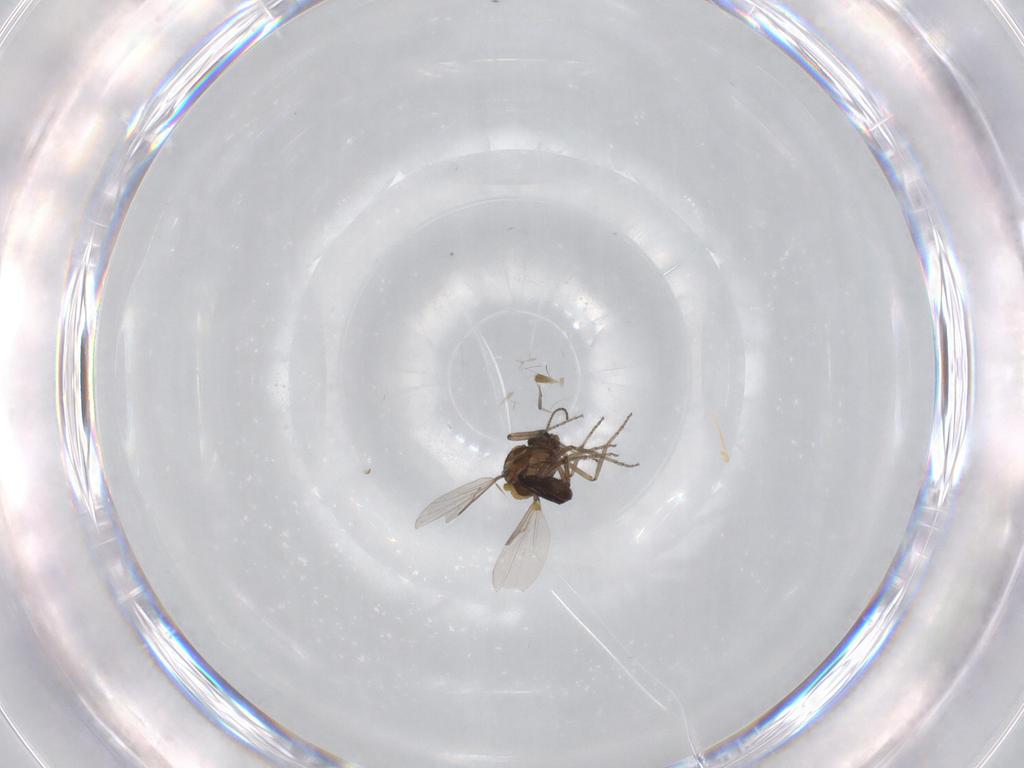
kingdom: Animalia
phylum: Arthropoda
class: Insecta
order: Diptera
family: Ceratopogonidae
